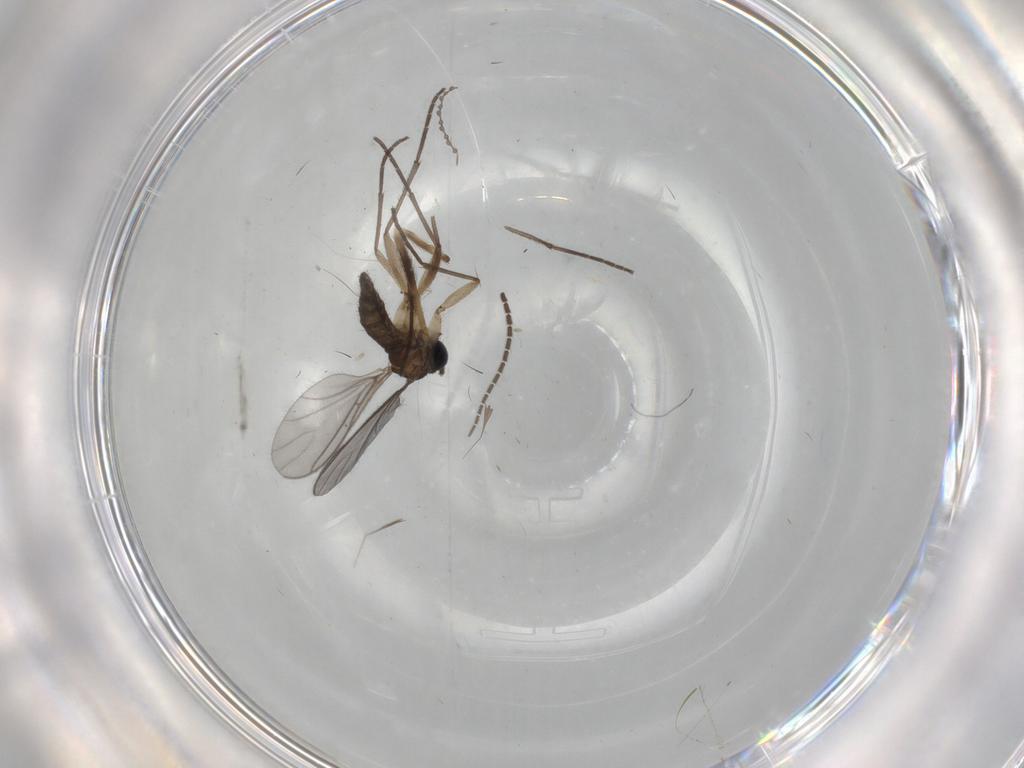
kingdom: Animalia
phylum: Arthropoda
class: Insecta
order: Diptera
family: Sciaridae
